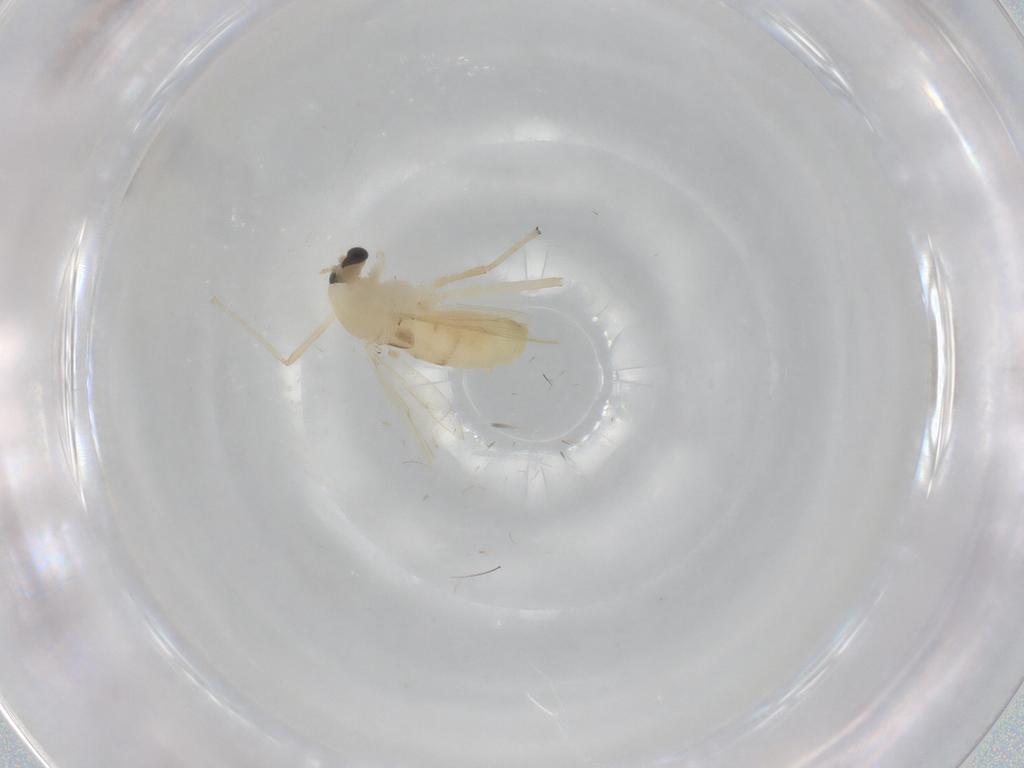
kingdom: Animalia
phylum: Arthropoda
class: Insecta
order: Diptera
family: Chironomidae
